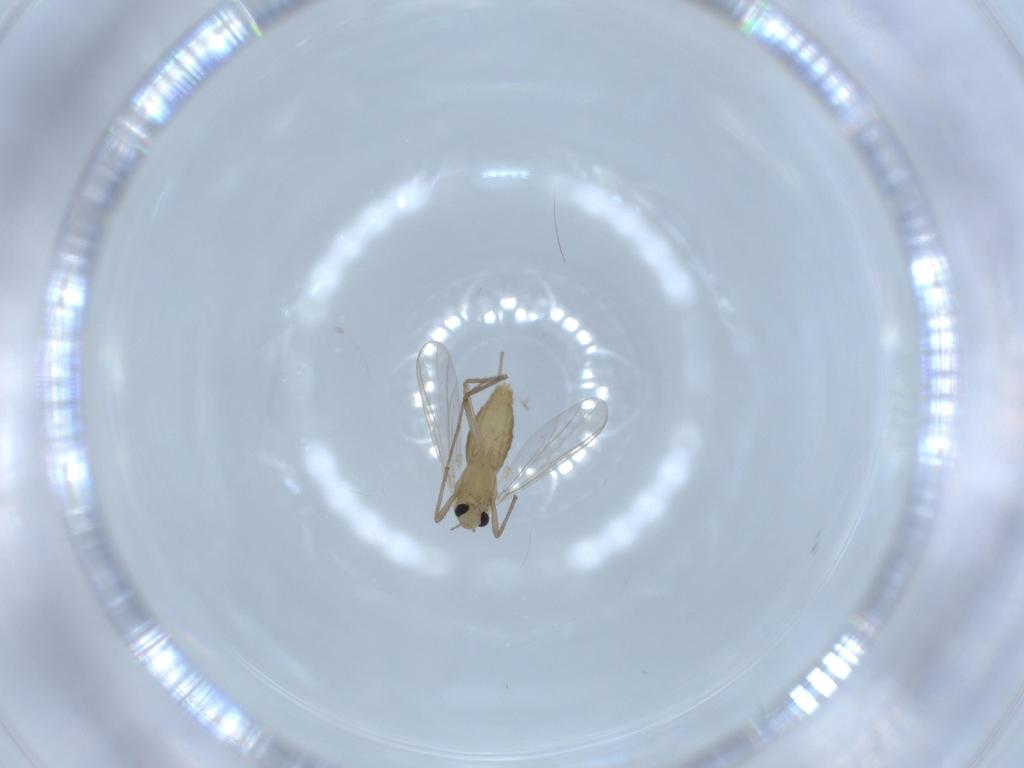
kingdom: Animalia
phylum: Arthropoda
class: Insecta
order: Diptera
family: Chironomidae
